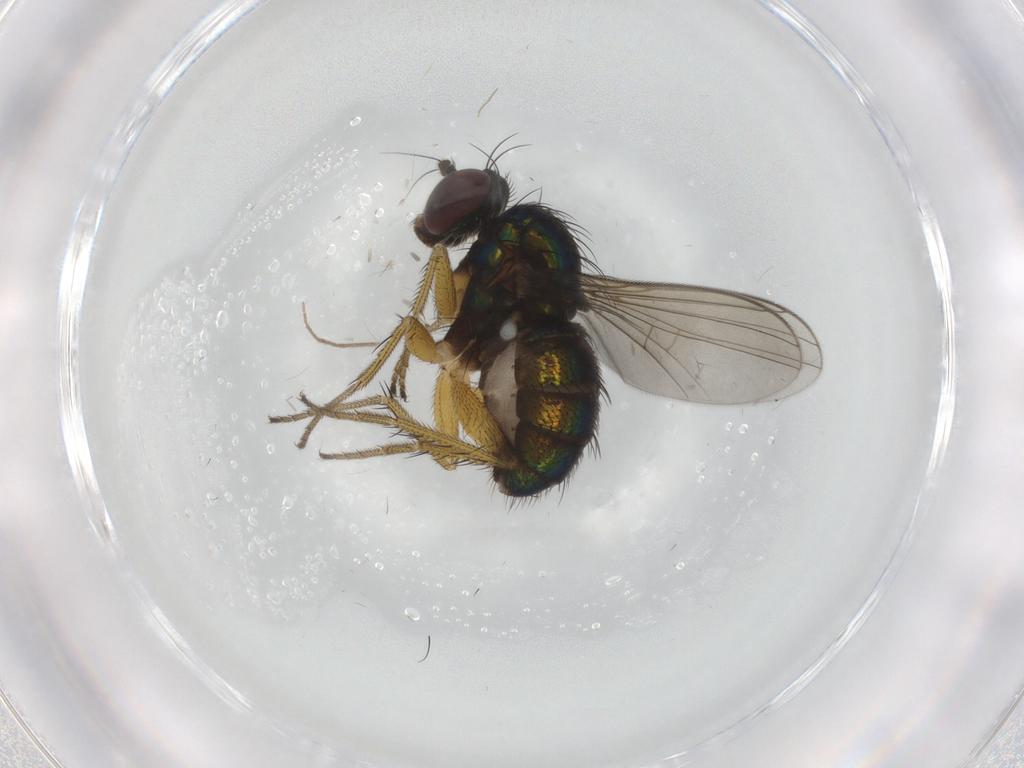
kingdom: Animalia
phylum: Arthropoda
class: Insecta
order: Diptera
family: Dolichopodidae
